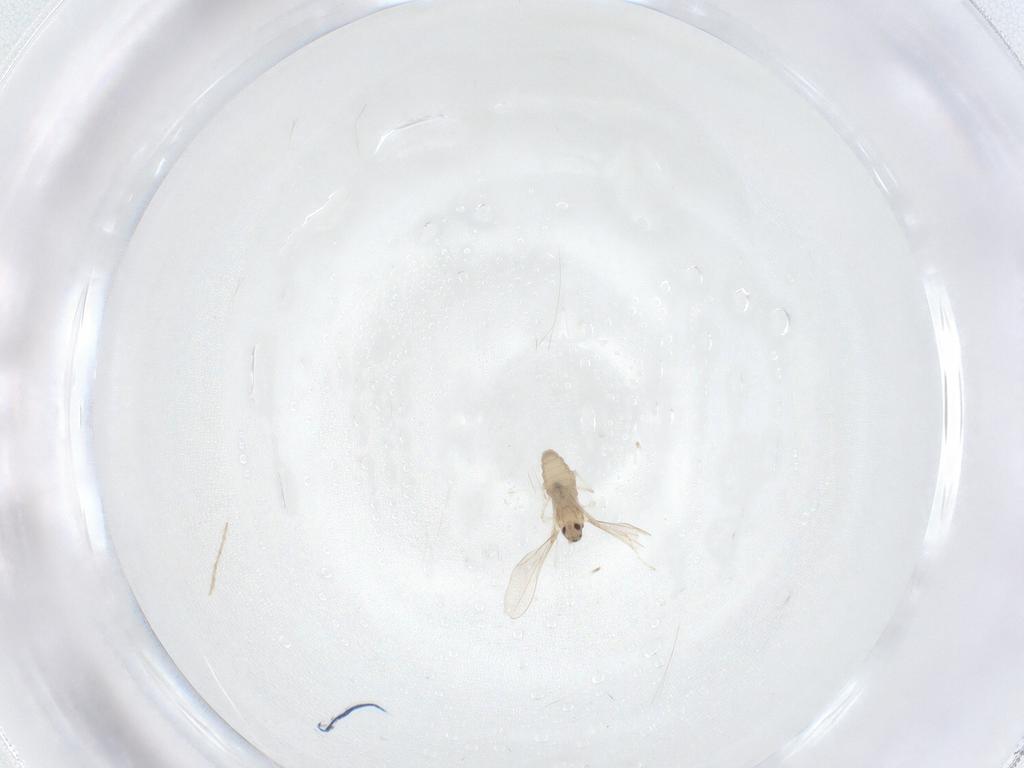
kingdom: Animalia
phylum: Arthropoda
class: Insecta
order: Diptera
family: Cecidomyiidae
